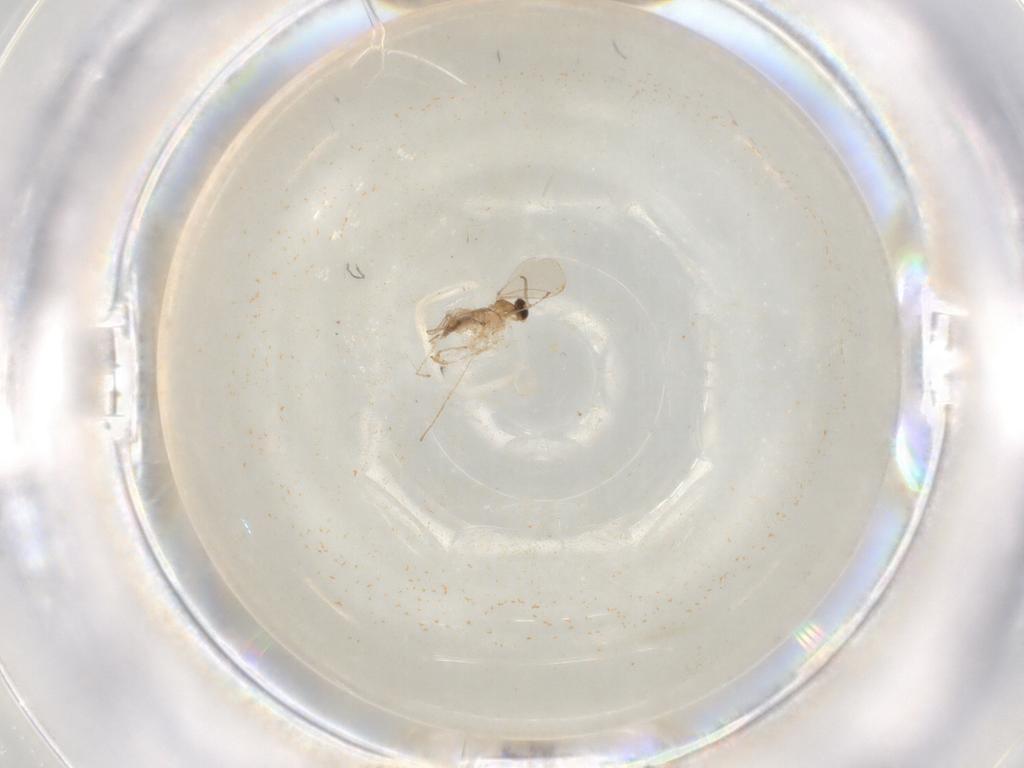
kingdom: Animalia
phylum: Arthropoda
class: Insecta
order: Diptera
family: Cecidomyiidae
